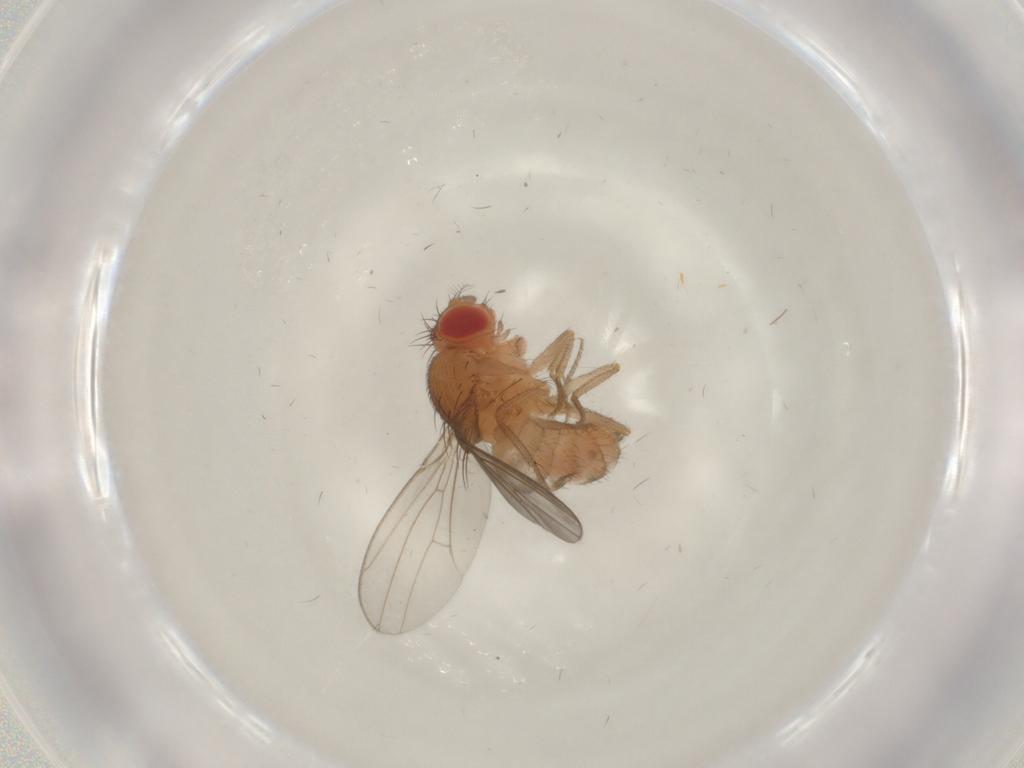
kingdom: Animalia
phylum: Arthropoda
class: Insecta
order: Diptera
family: Drosophilidae
